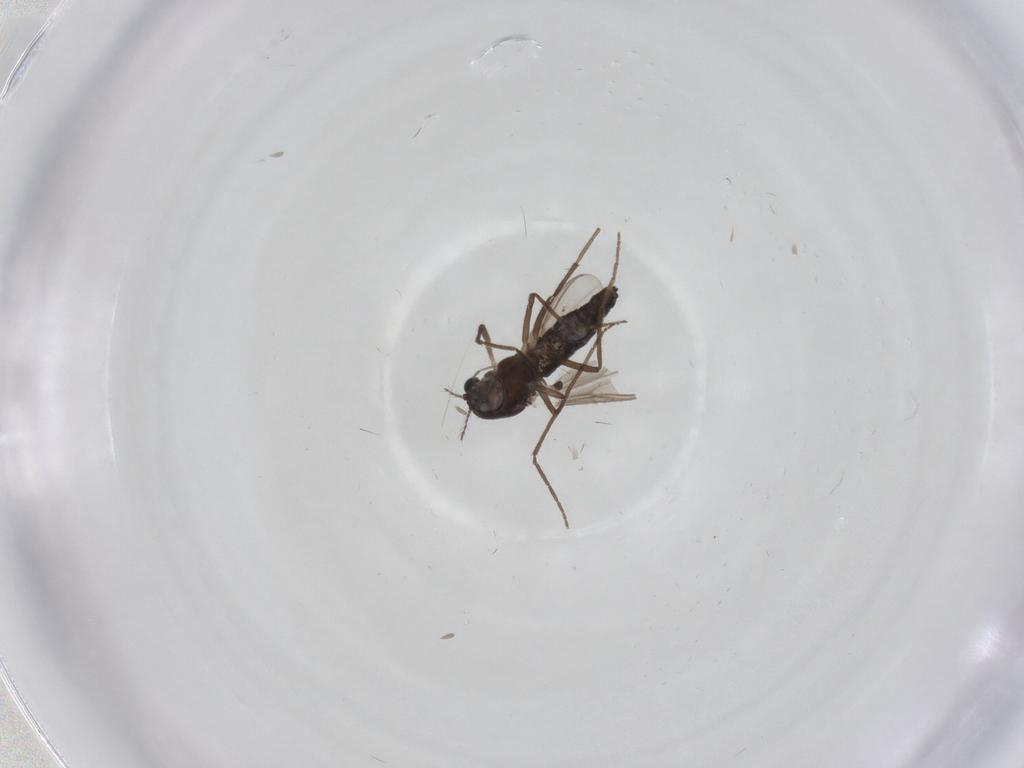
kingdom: Animalia
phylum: Arthropoda
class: Insecta
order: Diptera
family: Chironomidae
